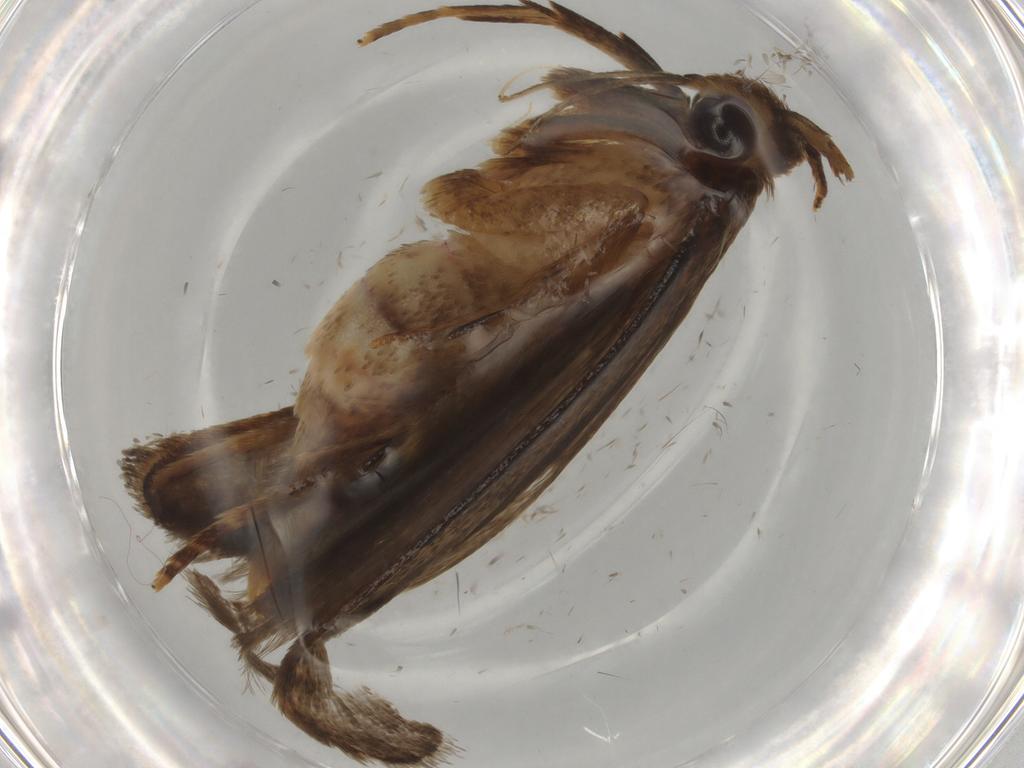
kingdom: Animalia
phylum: Arthropoda
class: Insecta
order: Lepidoptera
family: Autostichidae
